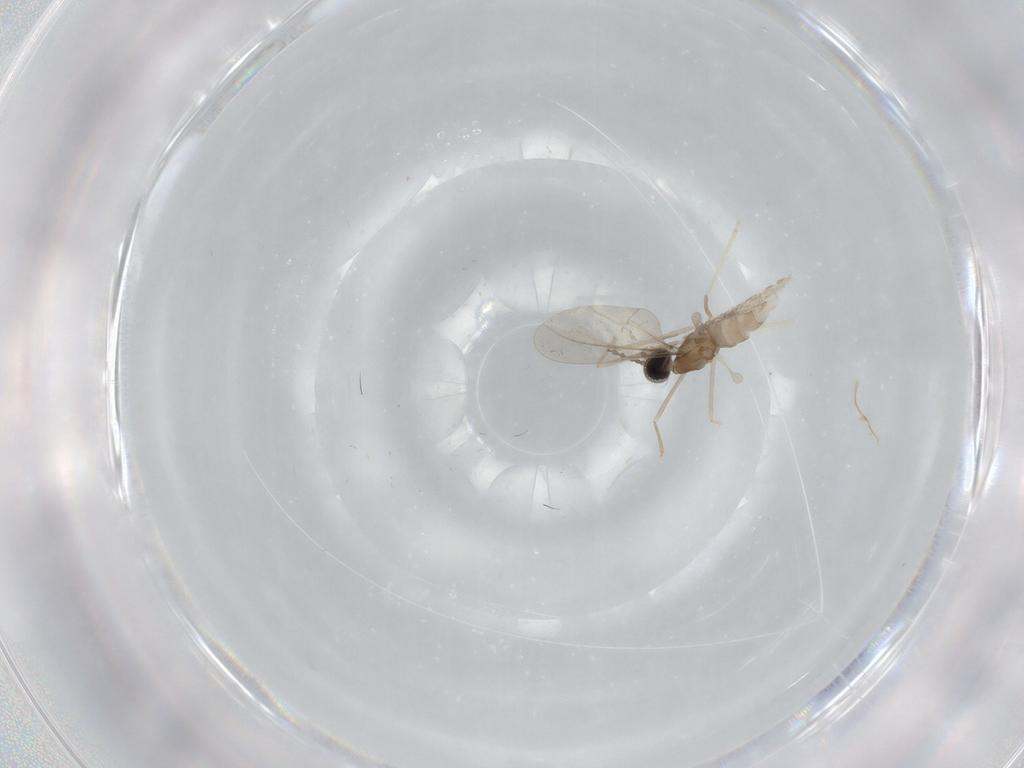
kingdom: Animalia
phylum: Arthropoda
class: Insecta
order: Diptera
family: Cecidomyiidae
